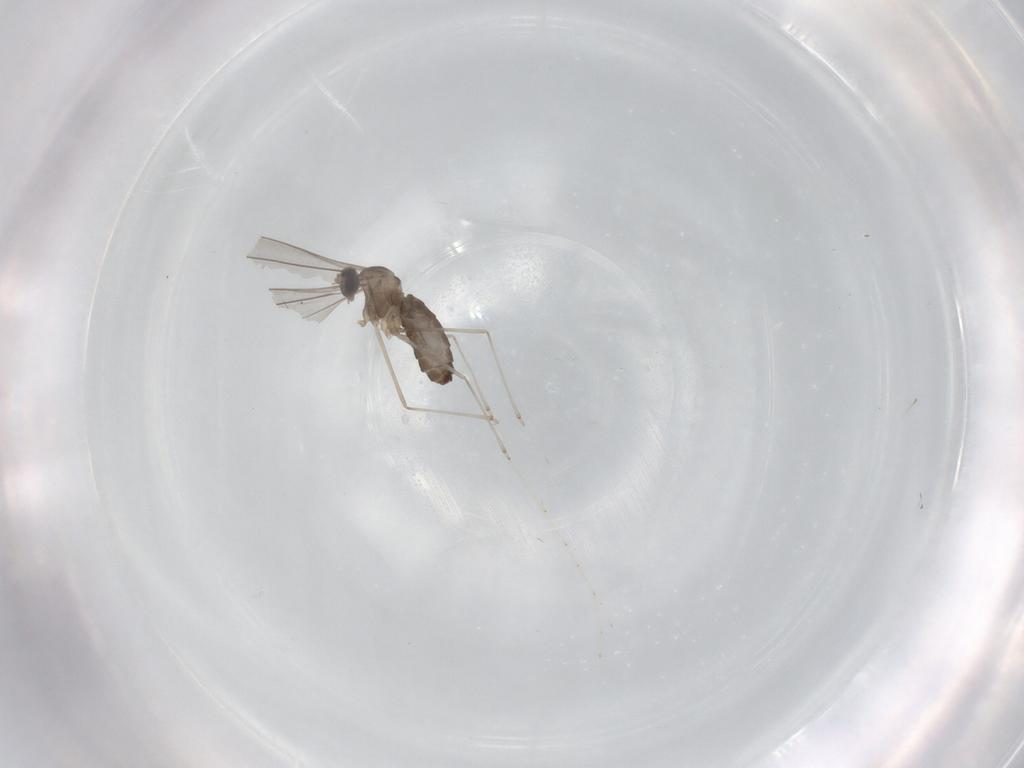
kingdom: Animalia
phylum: Arthropoda
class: Insecta
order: Diptera
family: Cecidomyiidae
